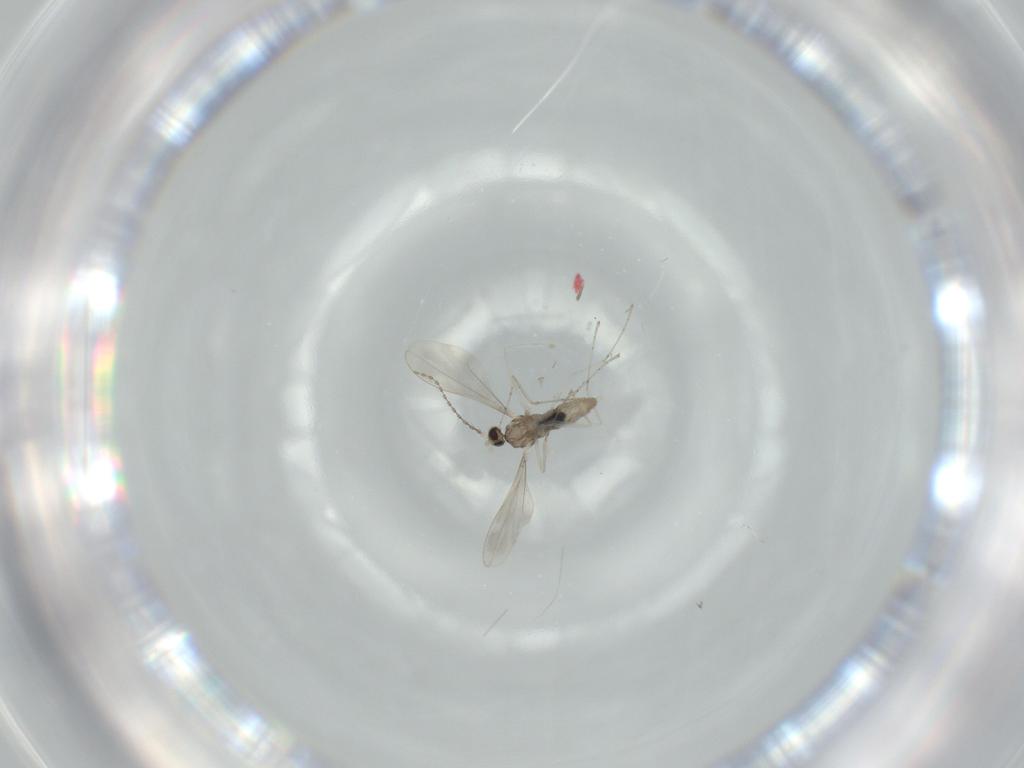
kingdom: Animalia
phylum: Arthropoda
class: Insecta
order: Diptera
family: Cecidomyiidae
